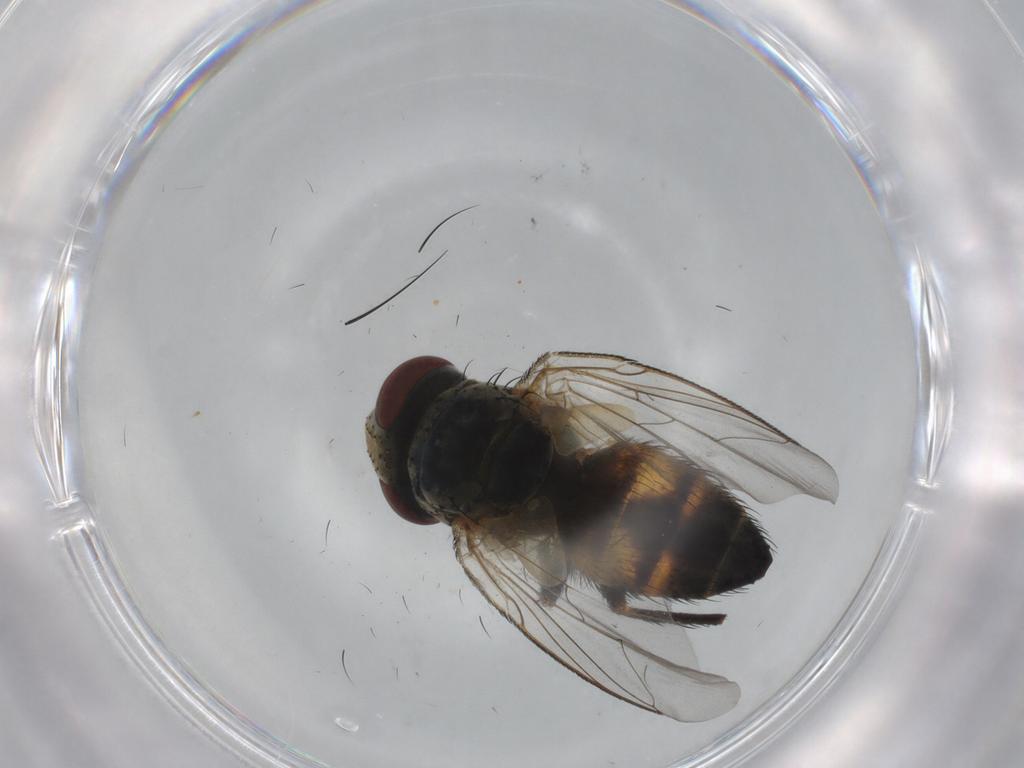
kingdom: Animalia
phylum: Arthropoda
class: Insecta
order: Diptera
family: Sarcophagidae
